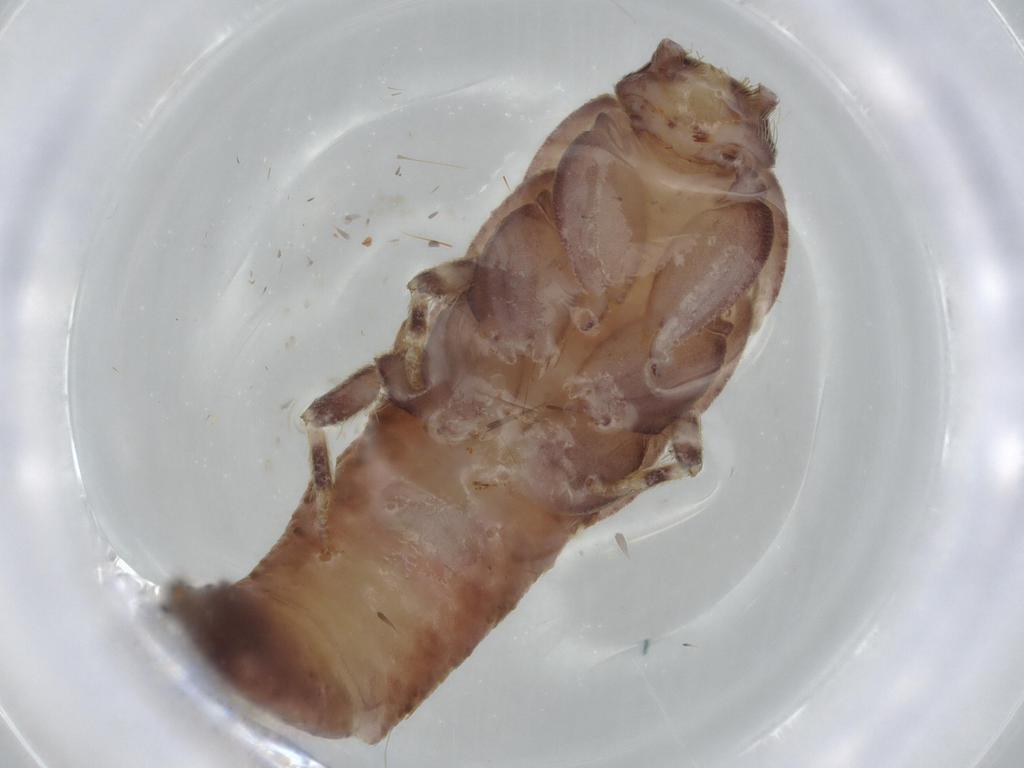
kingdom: Animalia
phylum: Arthropoda
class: Insecta
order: Zygentoma
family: Lepismatidae
